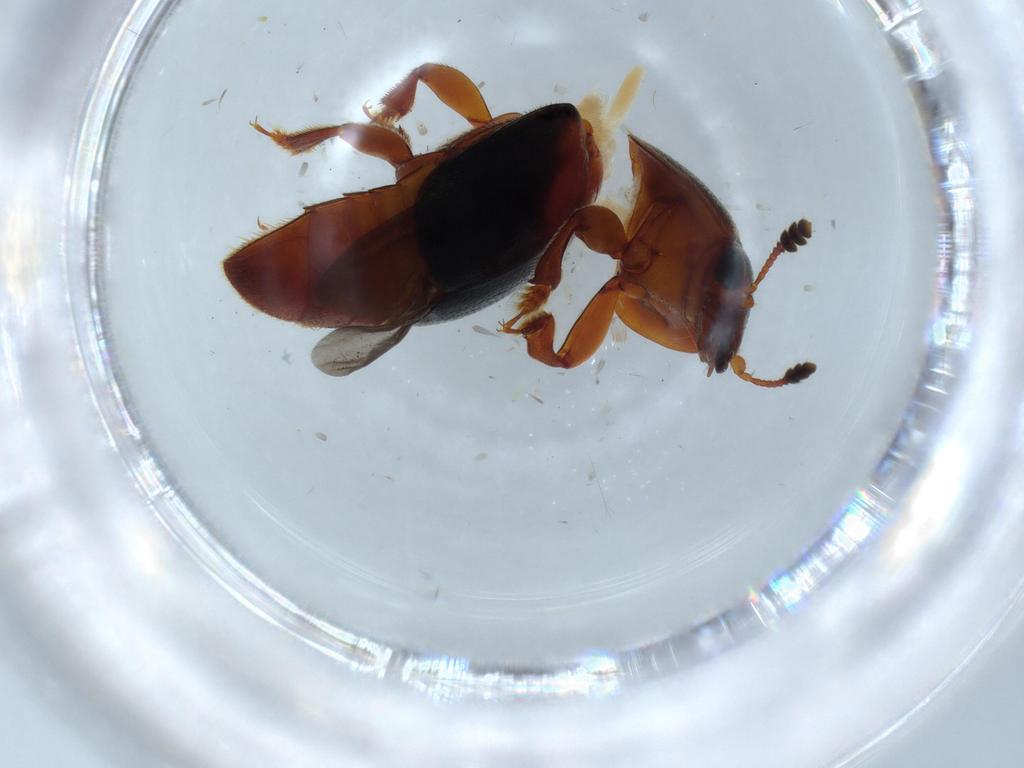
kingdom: Animalia
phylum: Arthropoda
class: Insecta
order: Coleoptera
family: Nitidulidae
